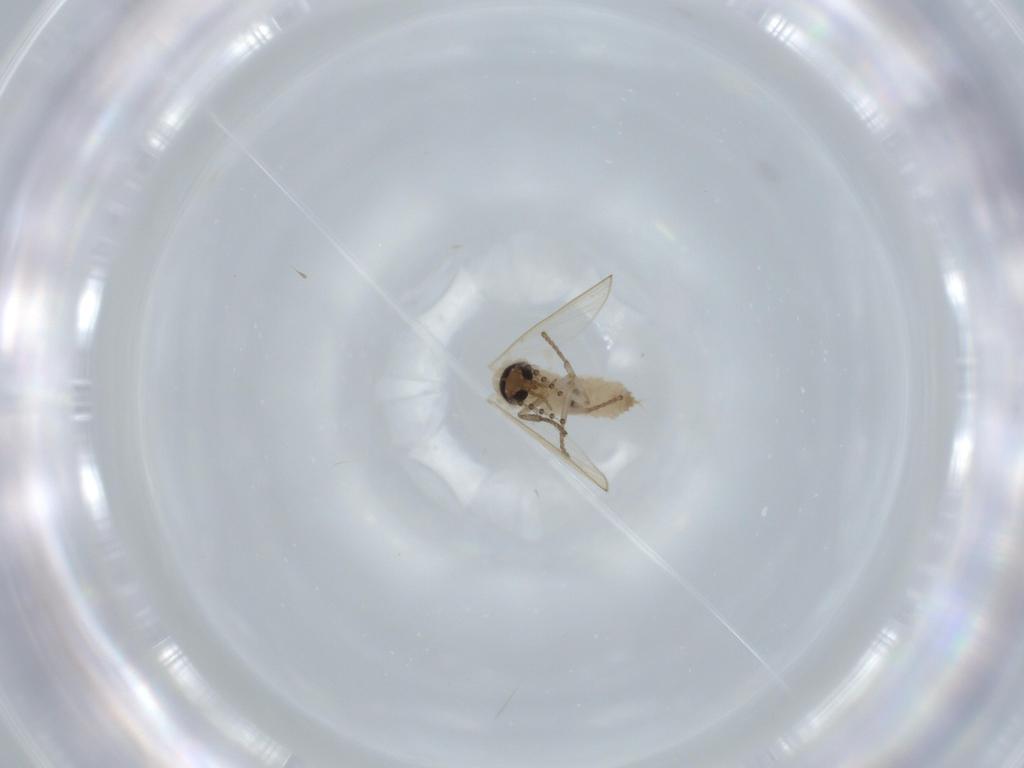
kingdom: Animalia
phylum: Arthropoda
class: Insecta
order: Diptera
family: Psychodidae
